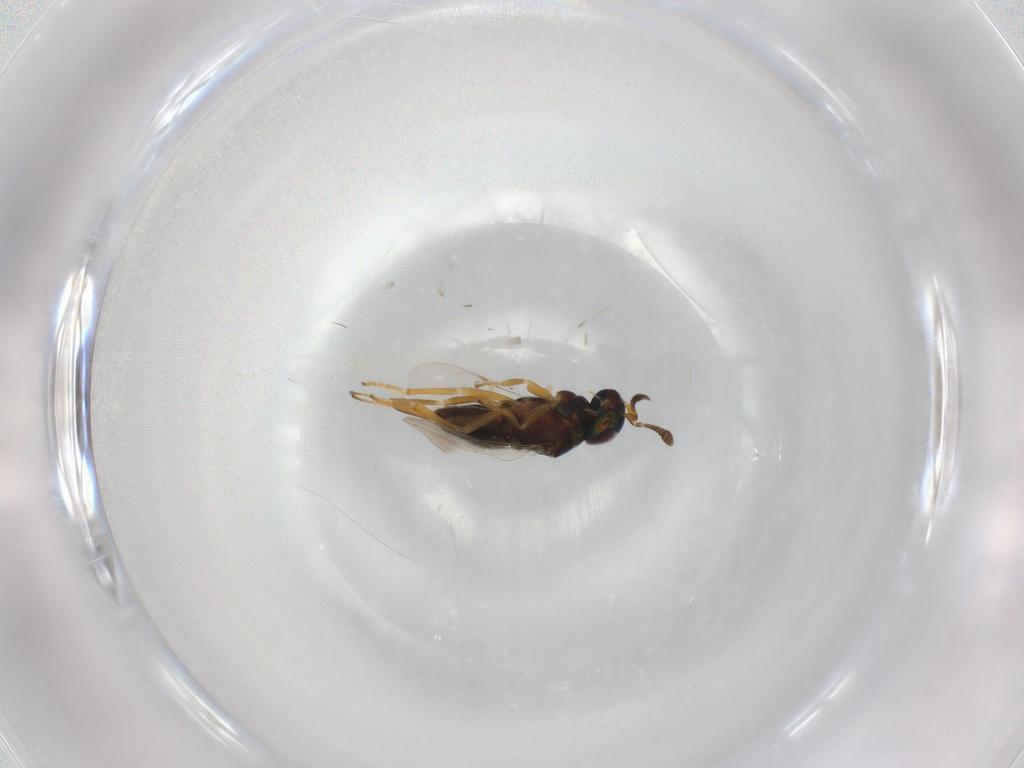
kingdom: Animalia
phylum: Arthropoda
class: Insecta
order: Hymenoptera
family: Encyrtidae
